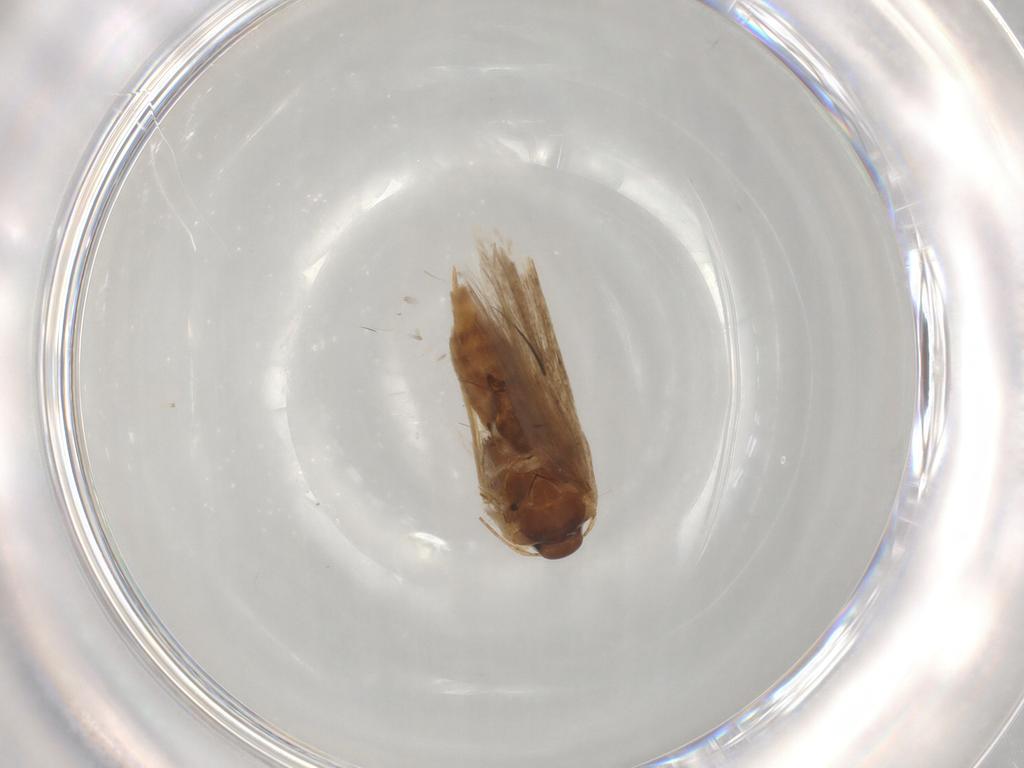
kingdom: Animalia
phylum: Arthropoda
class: Insecta
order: Lepidoptera
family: Cosmopterigidae
